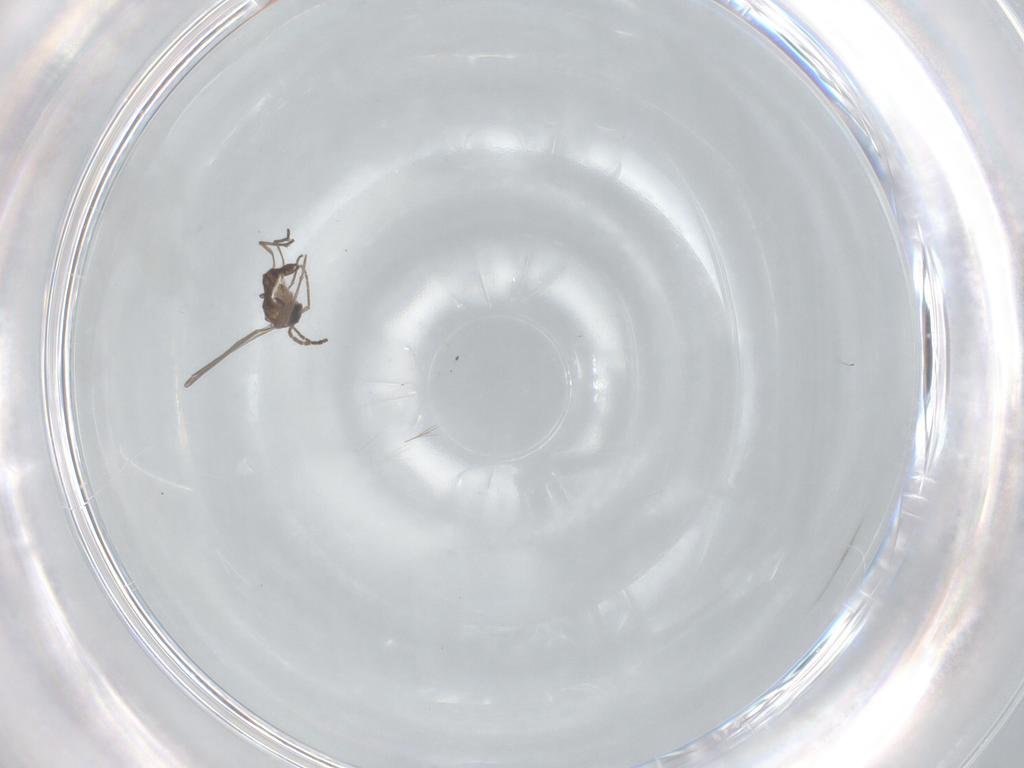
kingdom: Animalia
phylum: Arthropoda
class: Insecta
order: Diptera
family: Sciaridae
